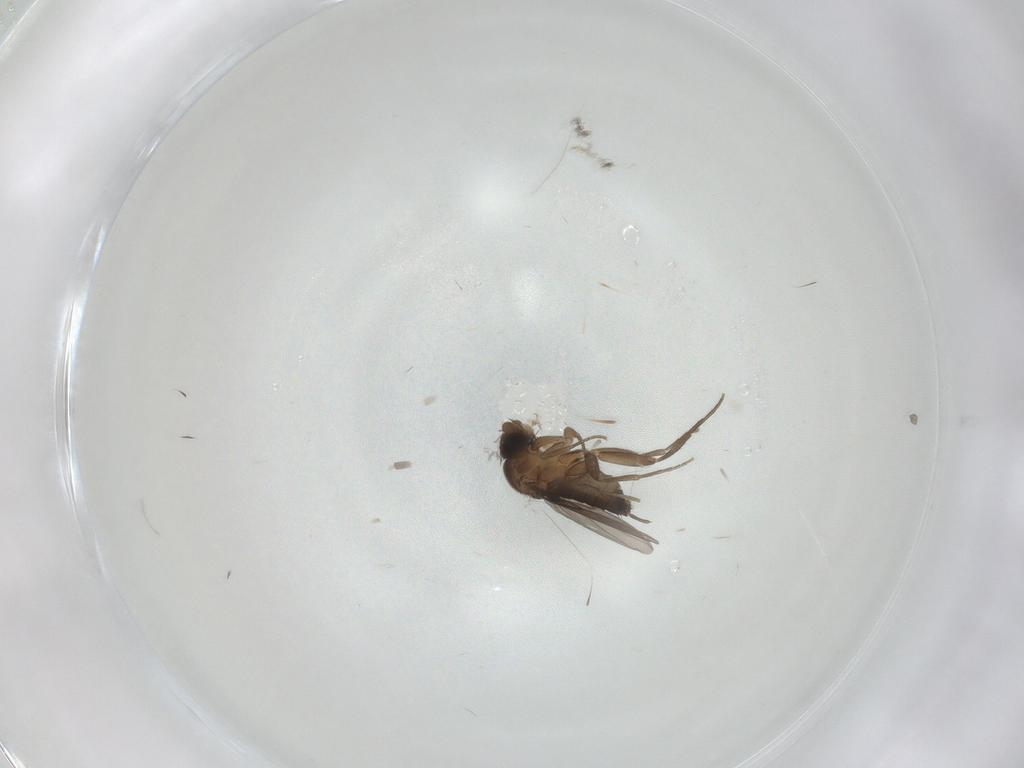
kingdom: Animalia
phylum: Arthropoda
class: Insecta
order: Diptera
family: Phoridae
